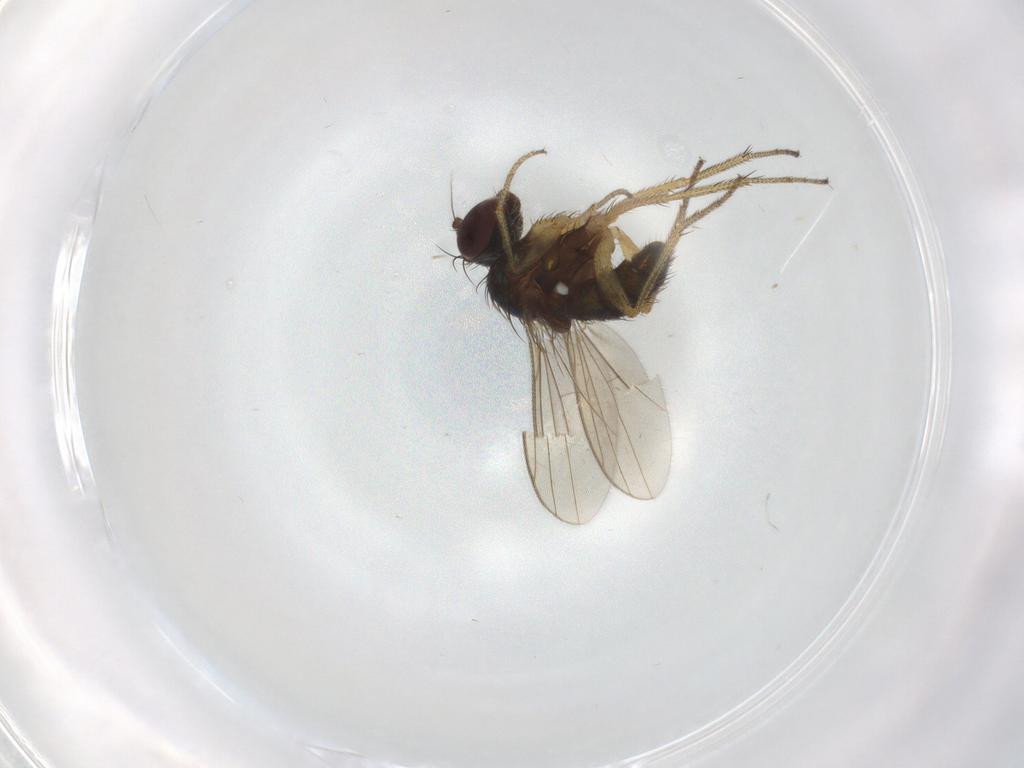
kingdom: Animalia
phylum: Arthropoda
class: Insecta
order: Diptera
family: Dolichopodidae
